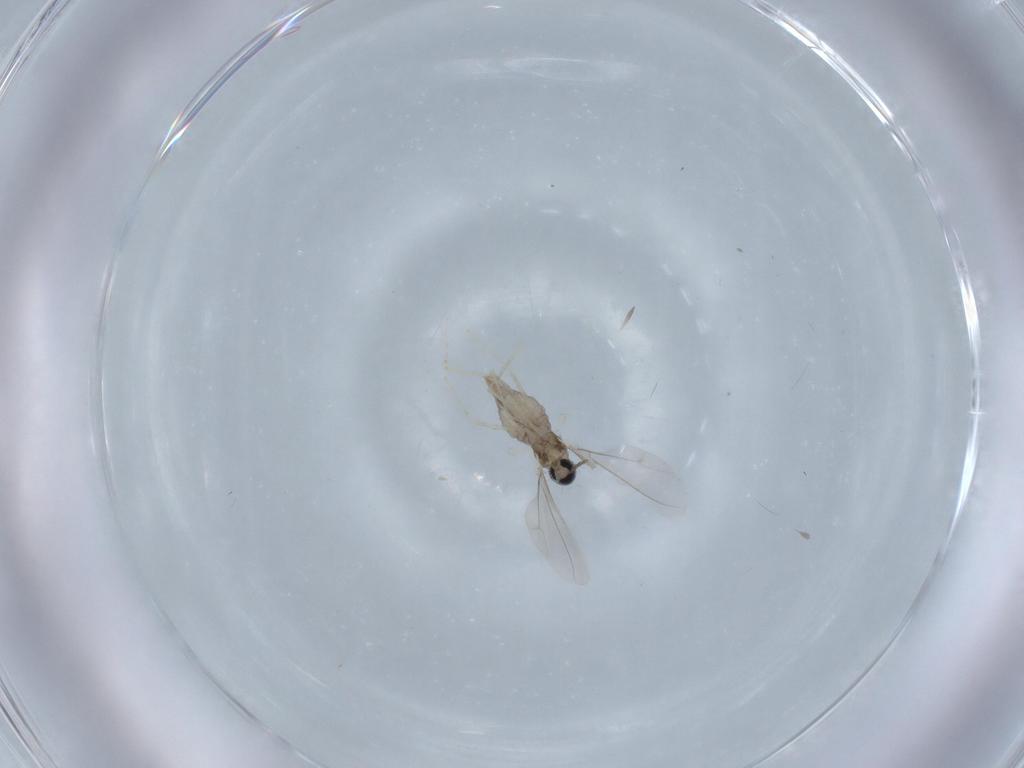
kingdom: Animalia
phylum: Arthropoda
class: Insecta
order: Diptera
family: Cecidomyiidae
